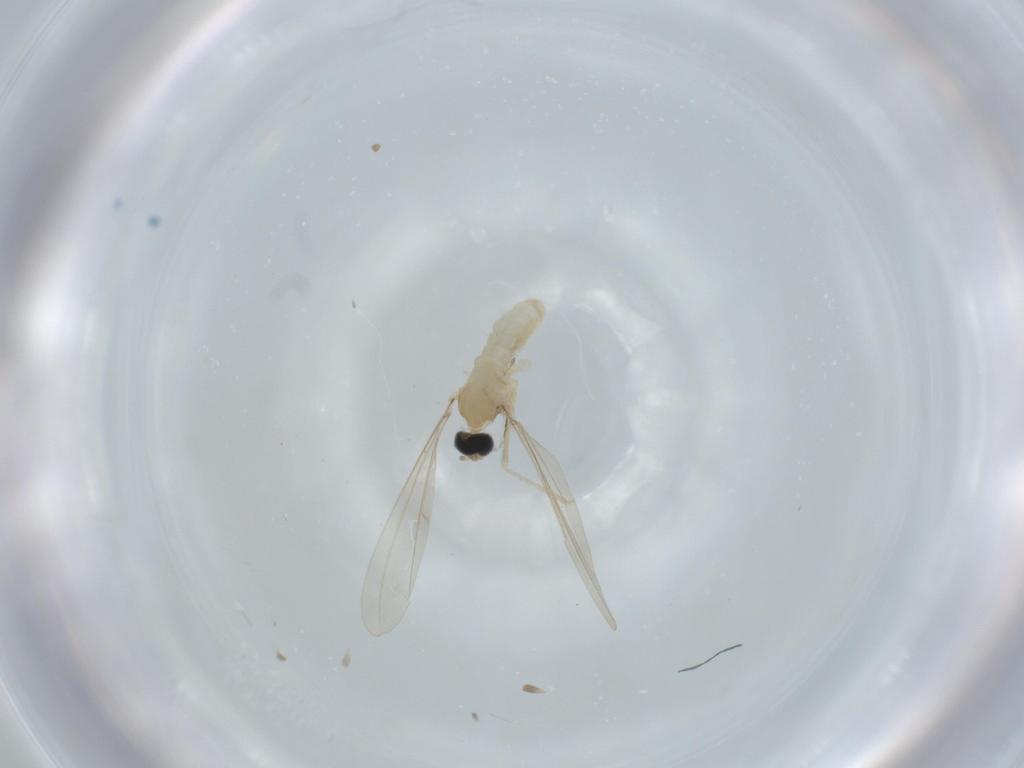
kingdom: Animalia
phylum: Arthropoda
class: Insecta
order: Diptera
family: Cecidomyiidae
